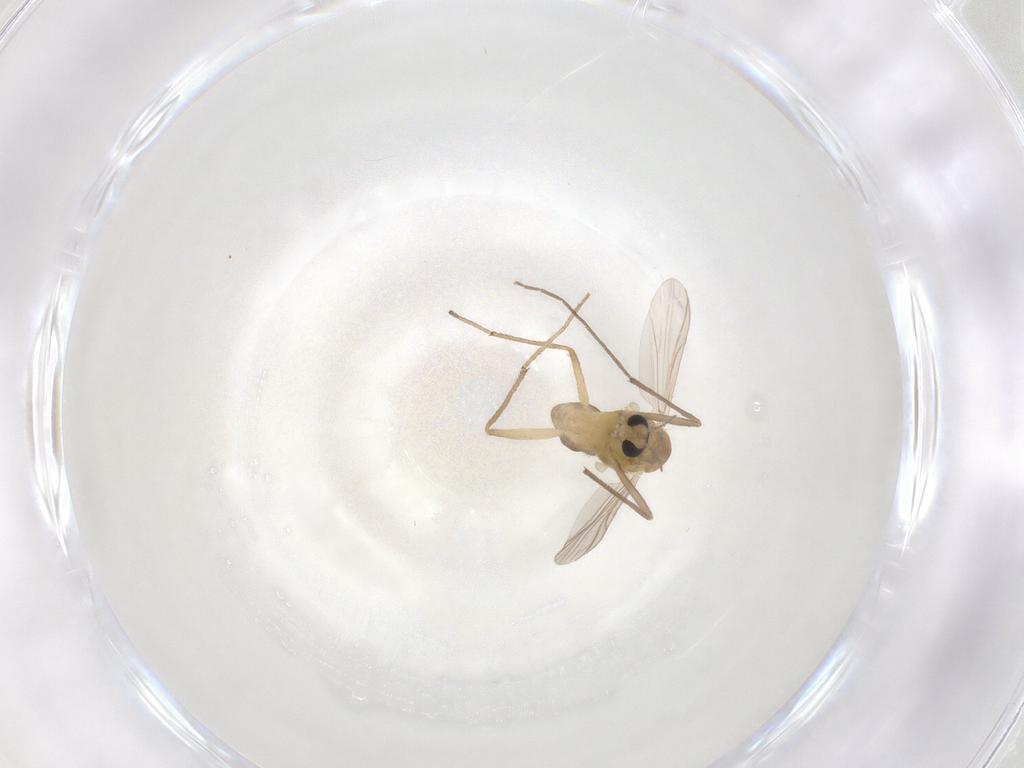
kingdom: Animalia
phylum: Arthropoda
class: Insecta
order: Diptera
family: Chironomidae
